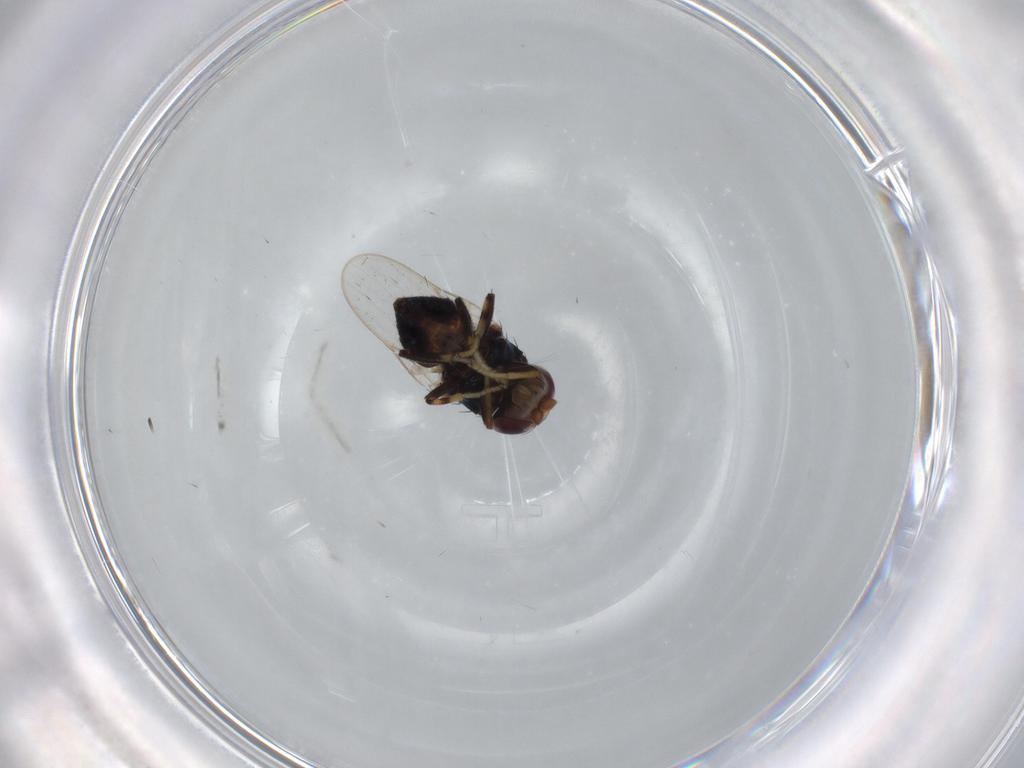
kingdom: Animalia
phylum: Arthropoda
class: Insecta
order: Diptera
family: Chloropidae
